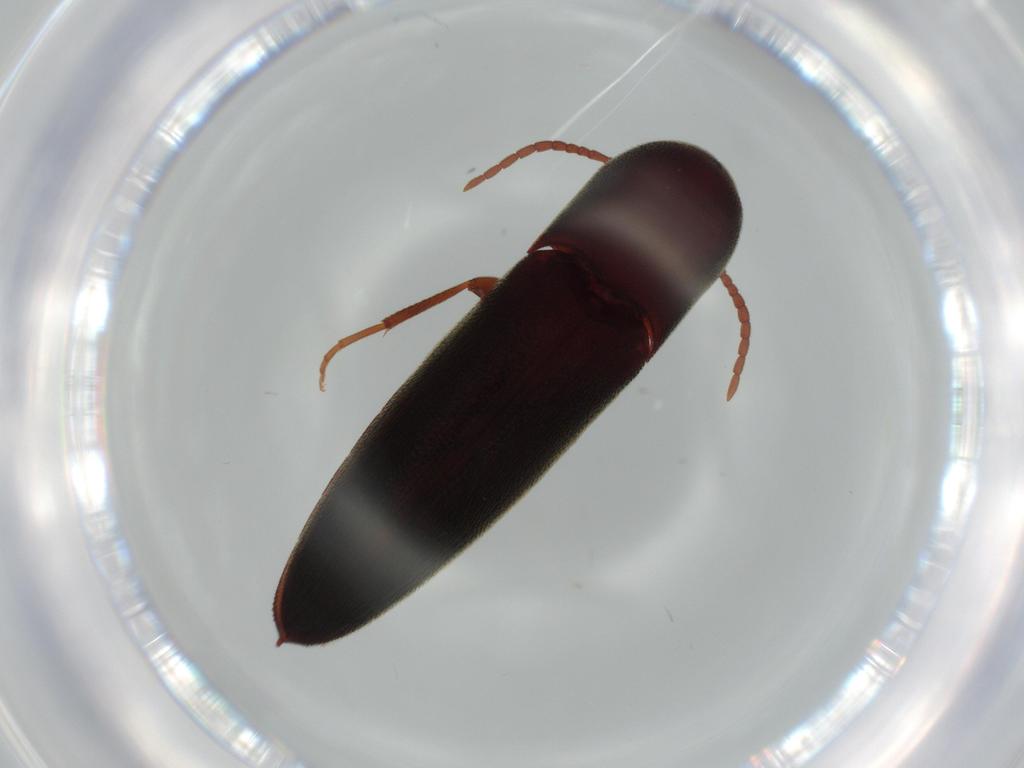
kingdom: Animalia
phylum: Arthropoda
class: Insecta
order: Coleoptera
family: Eucnemidae
